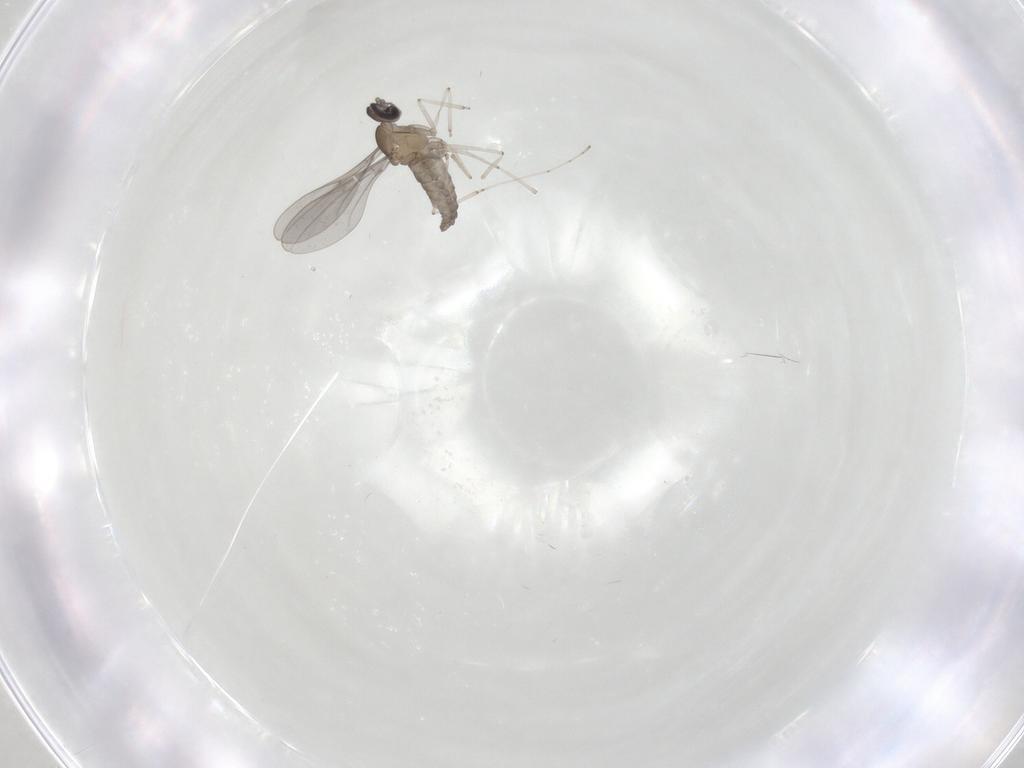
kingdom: Animalia
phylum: Arthropoda
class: Insecta
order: Diptera
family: Cecidomyiidae
